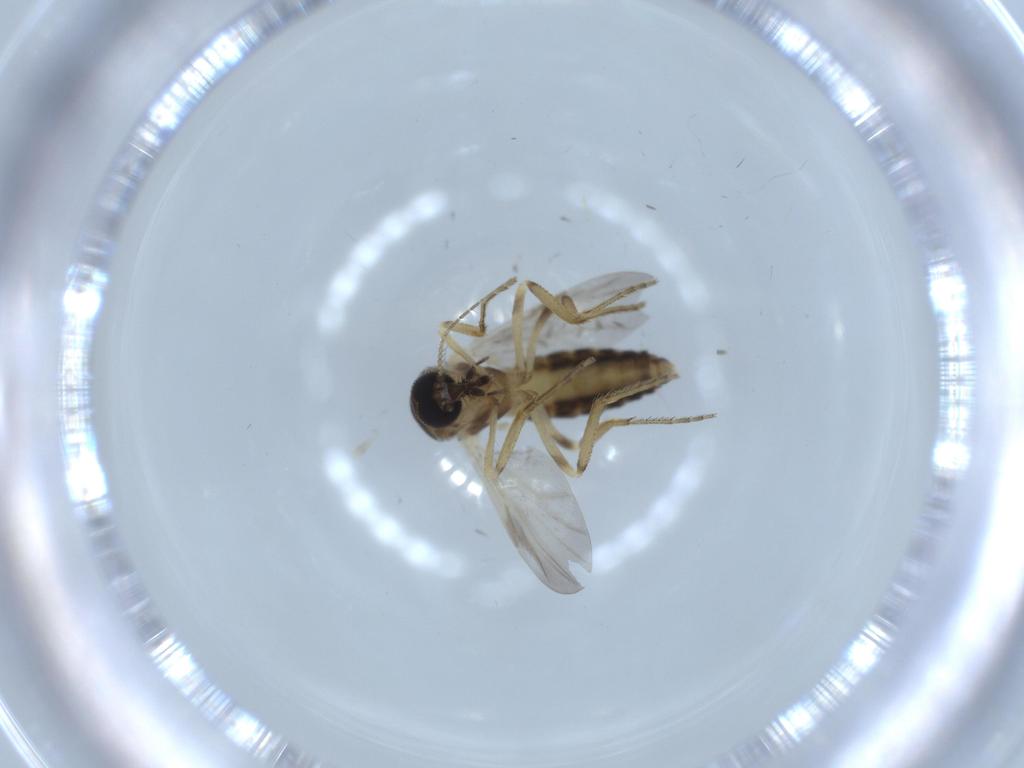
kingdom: Animalia
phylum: Arthropoda
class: Insecta
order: Diptera
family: Ceratopogonidae
